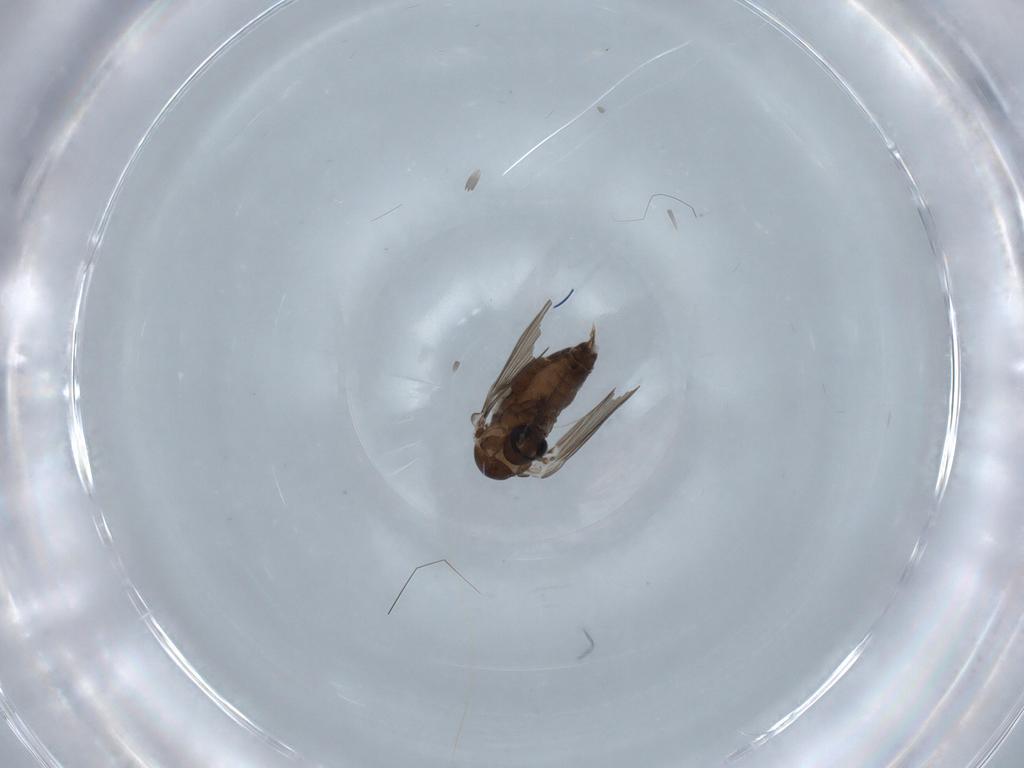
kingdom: Animalia
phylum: Arthropoda
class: Insecta
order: Diptera
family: Psychodidae
